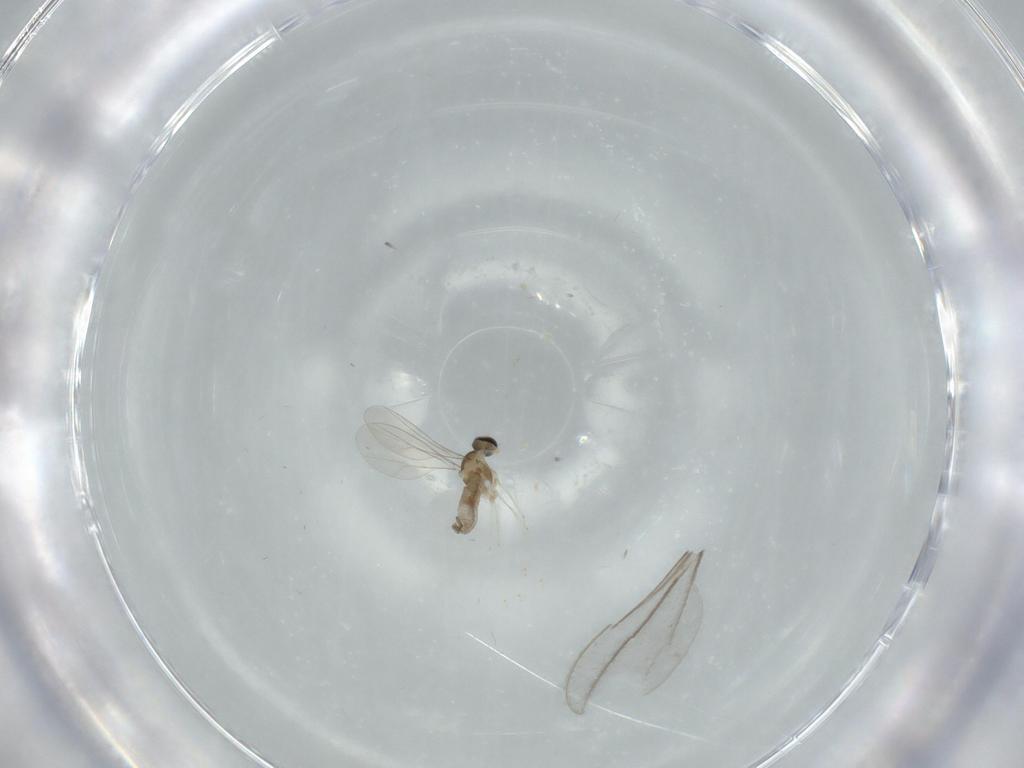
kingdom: Animalia
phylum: Arthropoda
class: Insecta
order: Diptera
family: Cecidomyiidae
